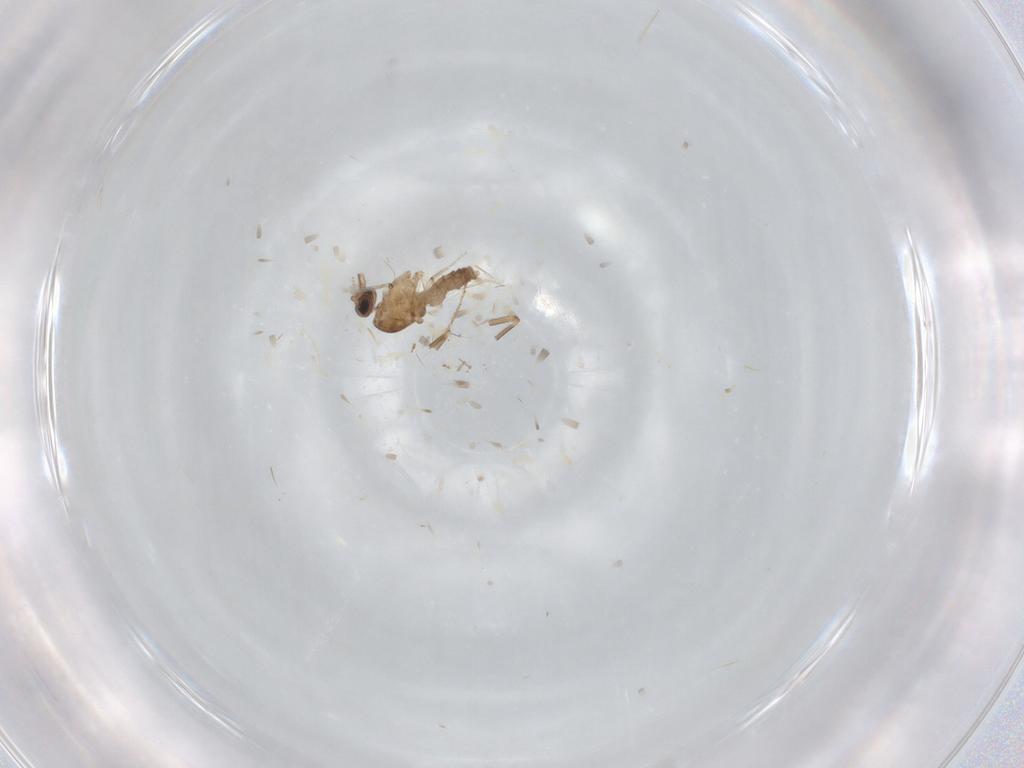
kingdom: Animalia
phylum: Arthropoda
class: Insecta
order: Diptera
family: Ceratopogonidae
